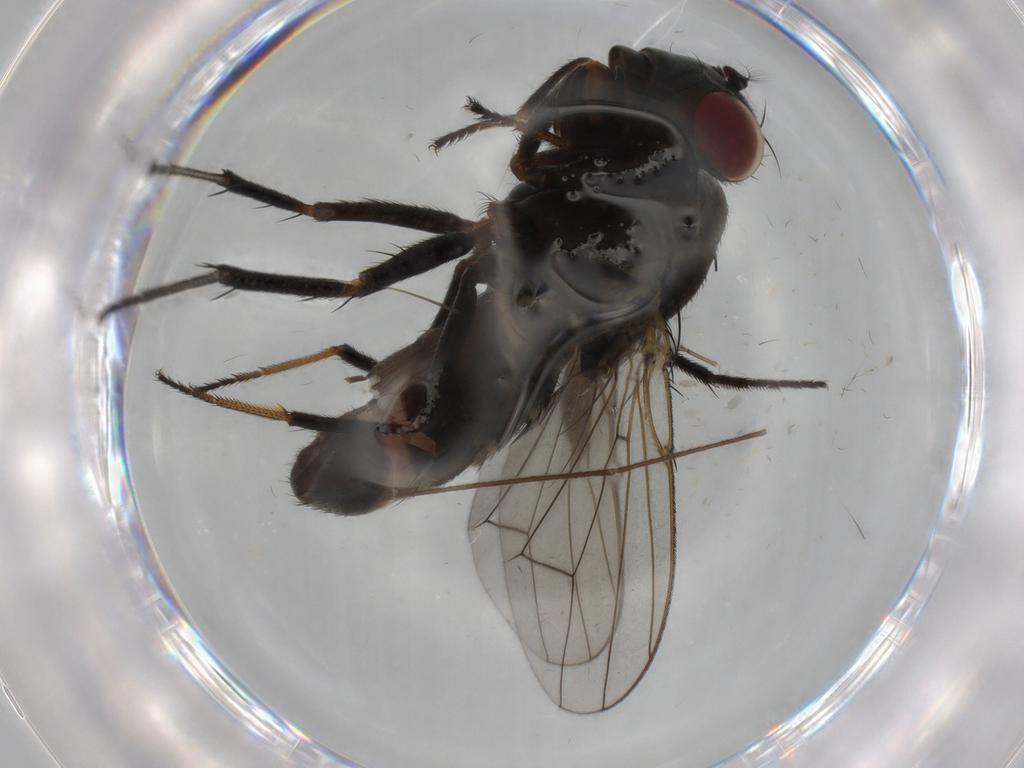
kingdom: Animalia
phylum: Arthropoda
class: Insecta
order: Diptera
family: Ephydridae
